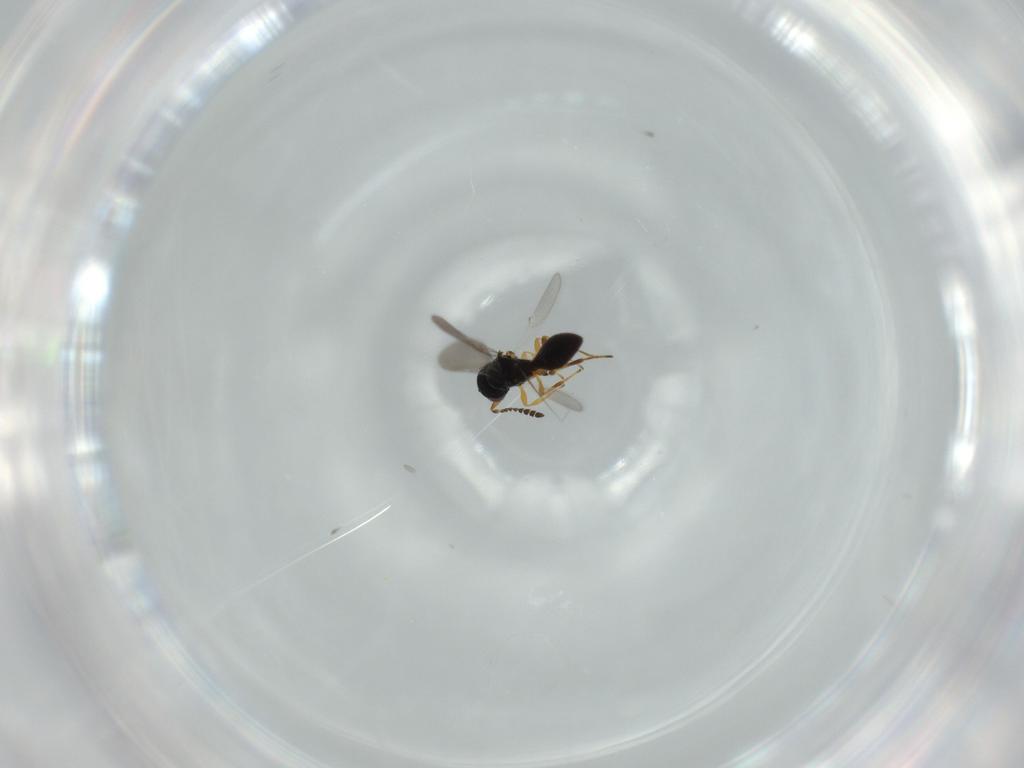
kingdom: Animalia
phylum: Arthropoda
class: Insecta
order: Hymenoptera
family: Platygastridae
